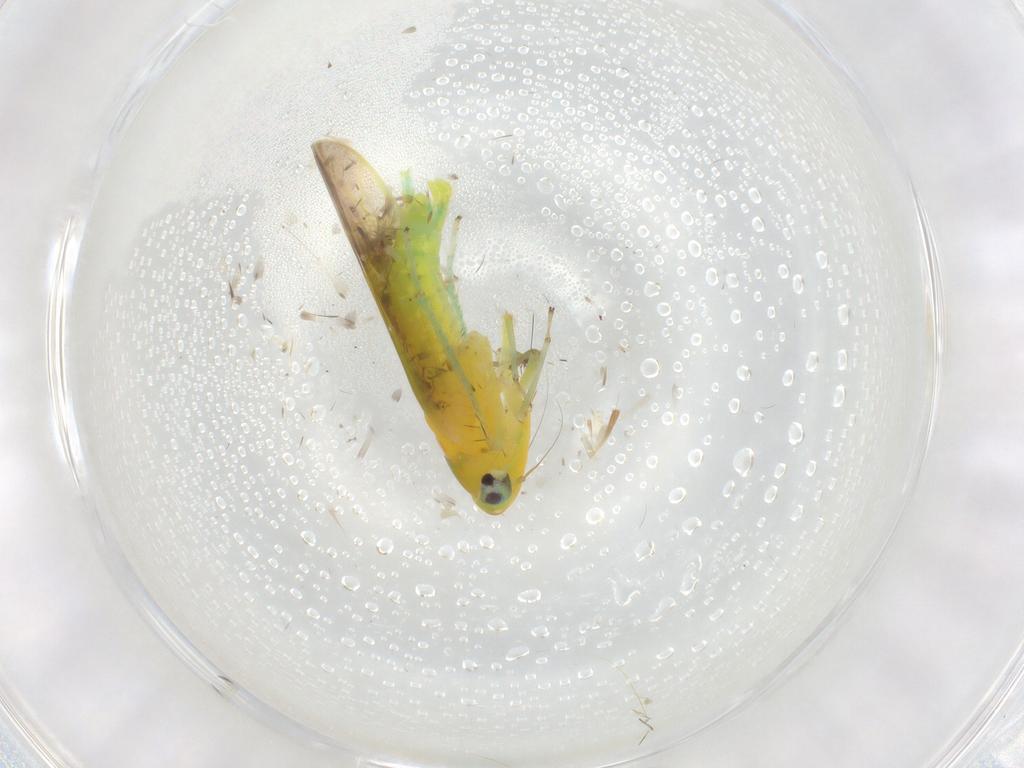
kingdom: Animalia
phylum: Arthropoda
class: Insecta
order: Hemiptera
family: Cicadellidae
